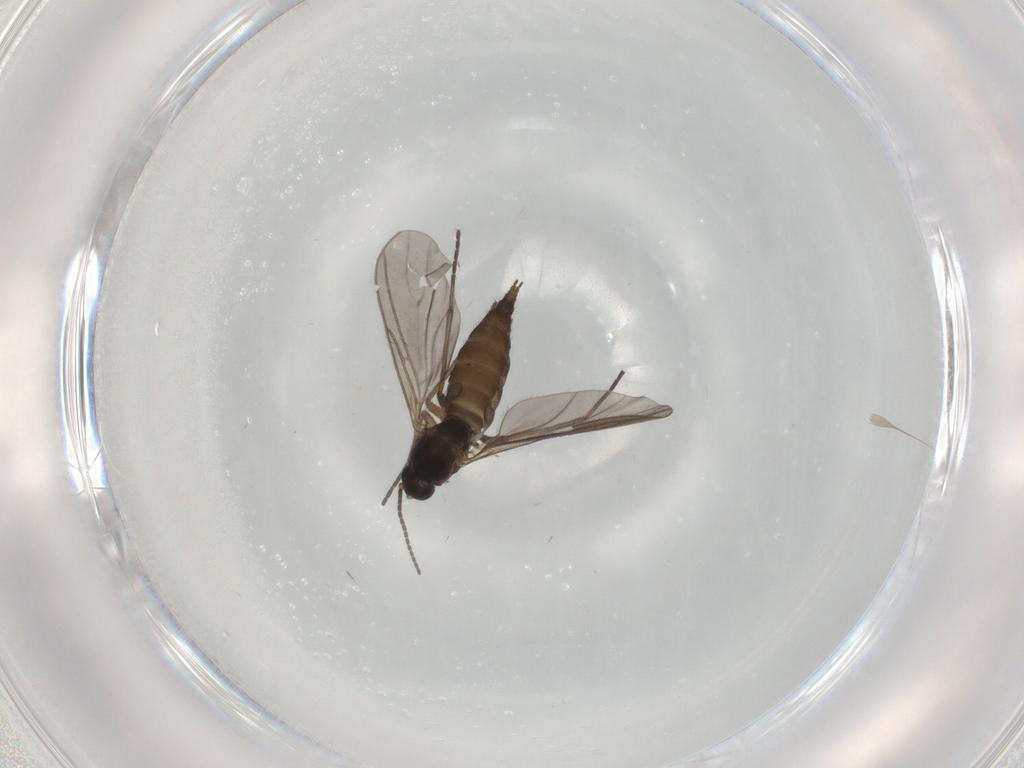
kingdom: Animalia
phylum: Arthropoda
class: Insecta
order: Diptera
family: Sciaridae
